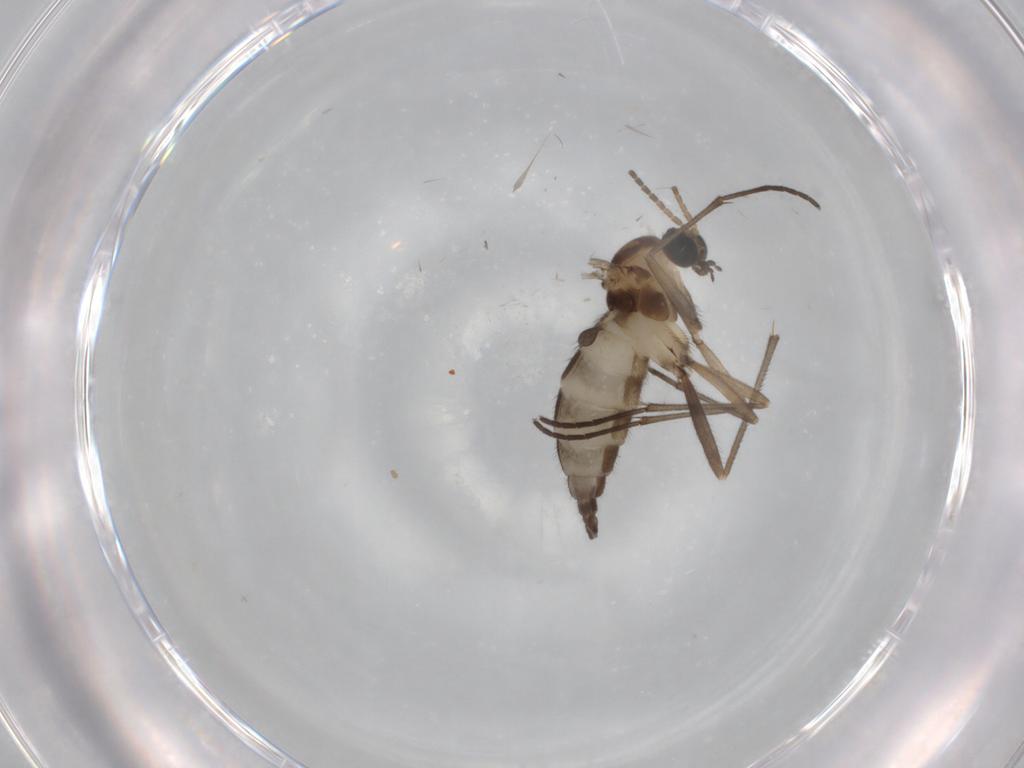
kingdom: Animalia
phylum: Arthropoda
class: Insecta
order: Diptera
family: Sciaridae
